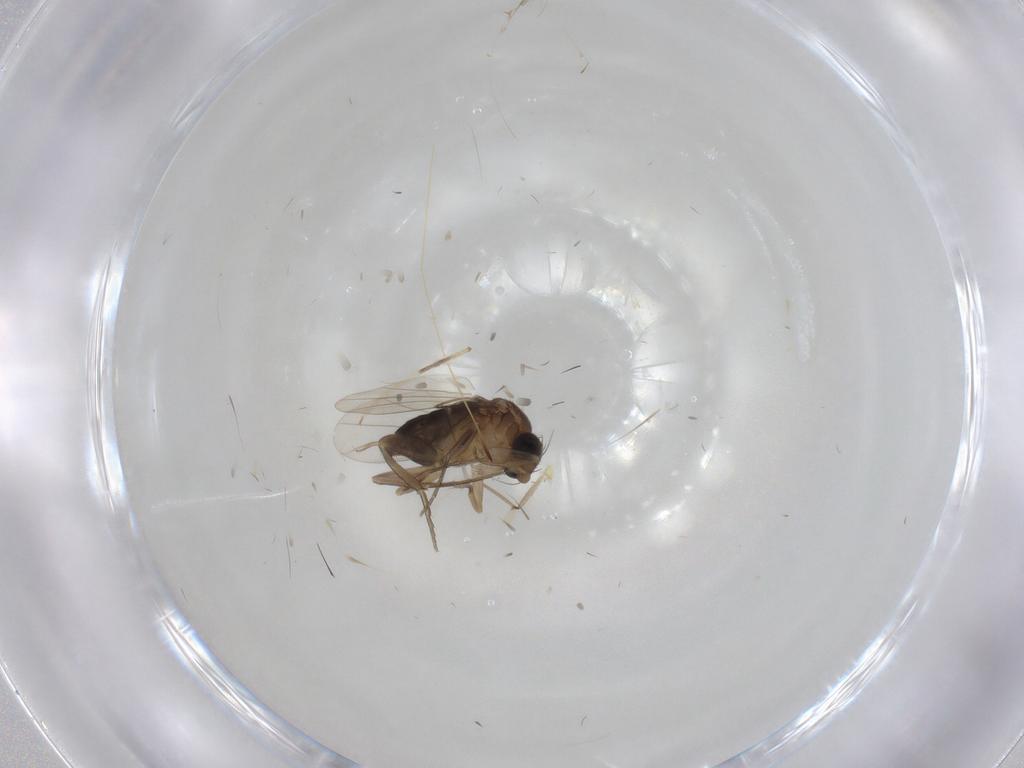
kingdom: Animalia
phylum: Arthropoda
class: Insecta
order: Diptera
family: Phoridae
